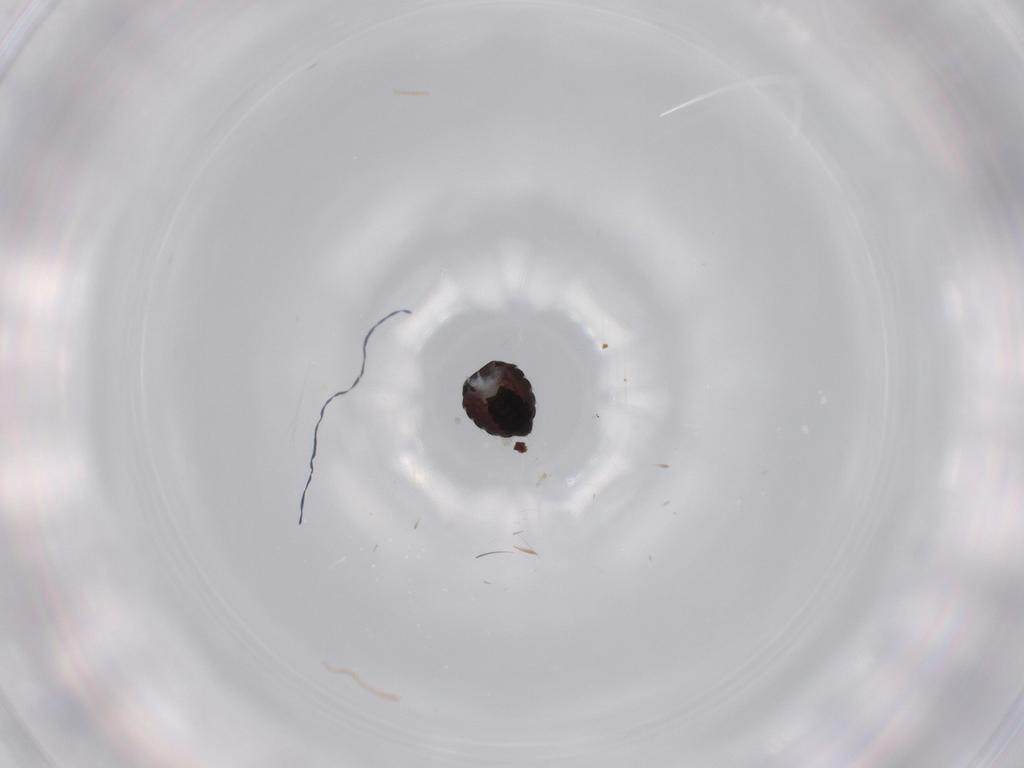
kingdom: Animalia
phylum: Arthropoda
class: Insecta
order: Diptera
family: Sphaeroceridae
